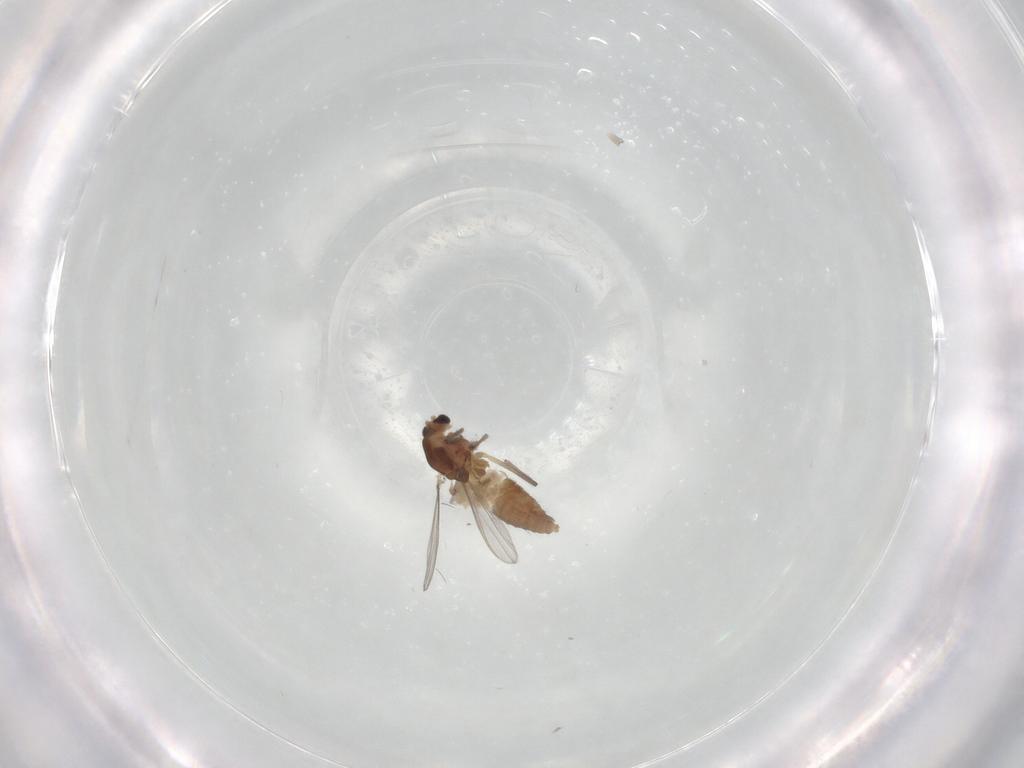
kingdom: Animalia
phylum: Arthropoda
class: Insecta
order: Diptera
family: Chironomidae
